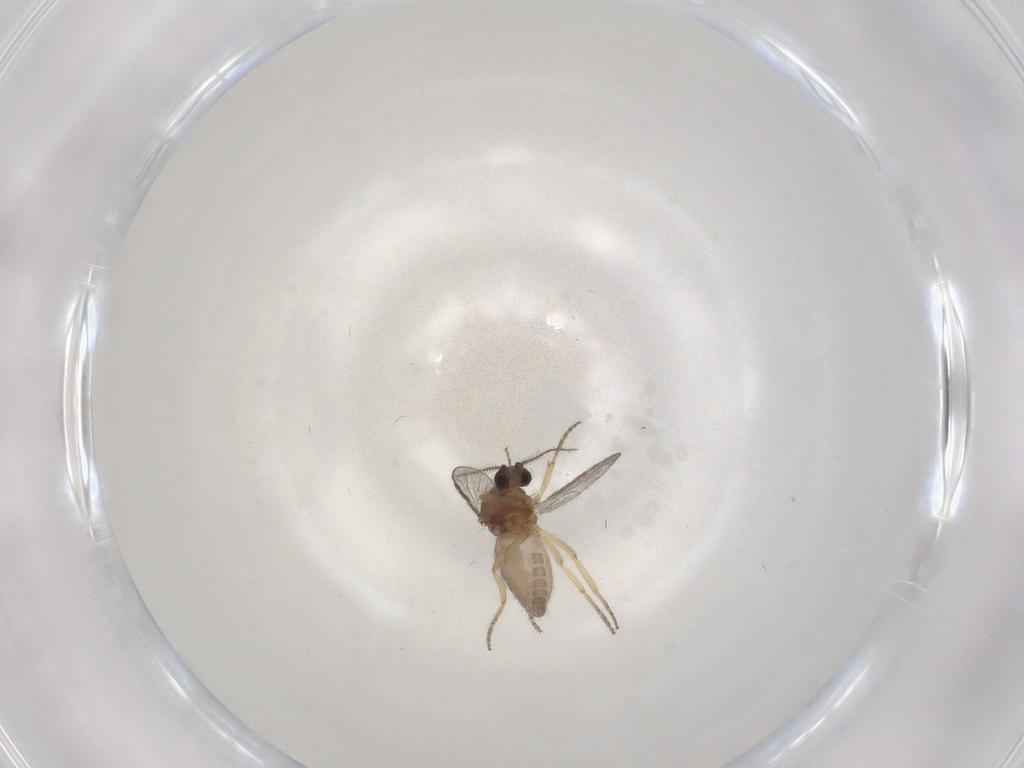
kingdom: Animalia
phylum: Arthropoda
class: Insecta
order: Diptera
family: Ceratopogonidae
